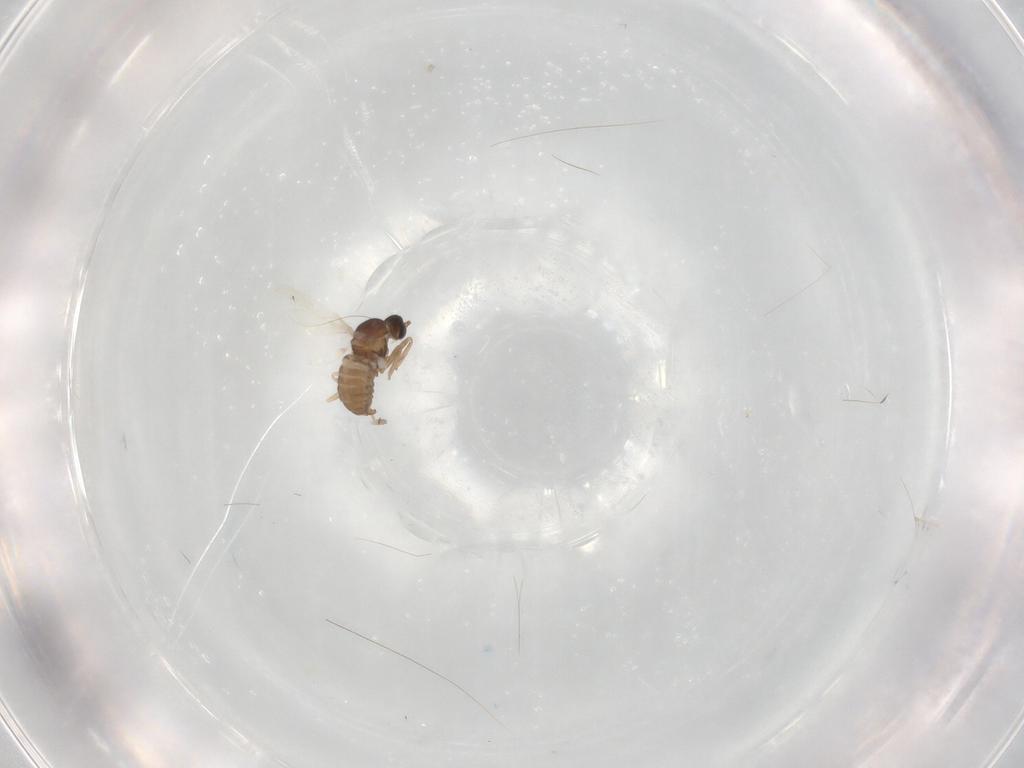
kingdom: Animalia
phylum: Arthropoda
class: Insecta
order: Diptera
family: Cecidomyiidae
